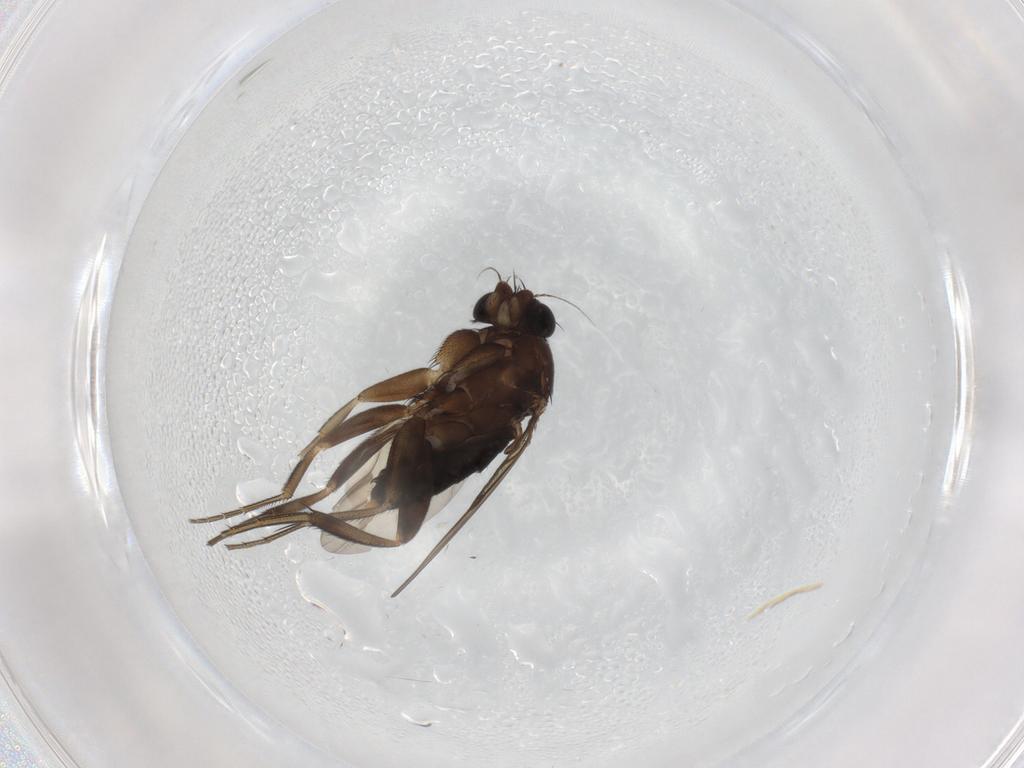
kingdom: Animalia
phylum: Arthropoda
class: Insecta
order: Diptera
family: Phoridae
